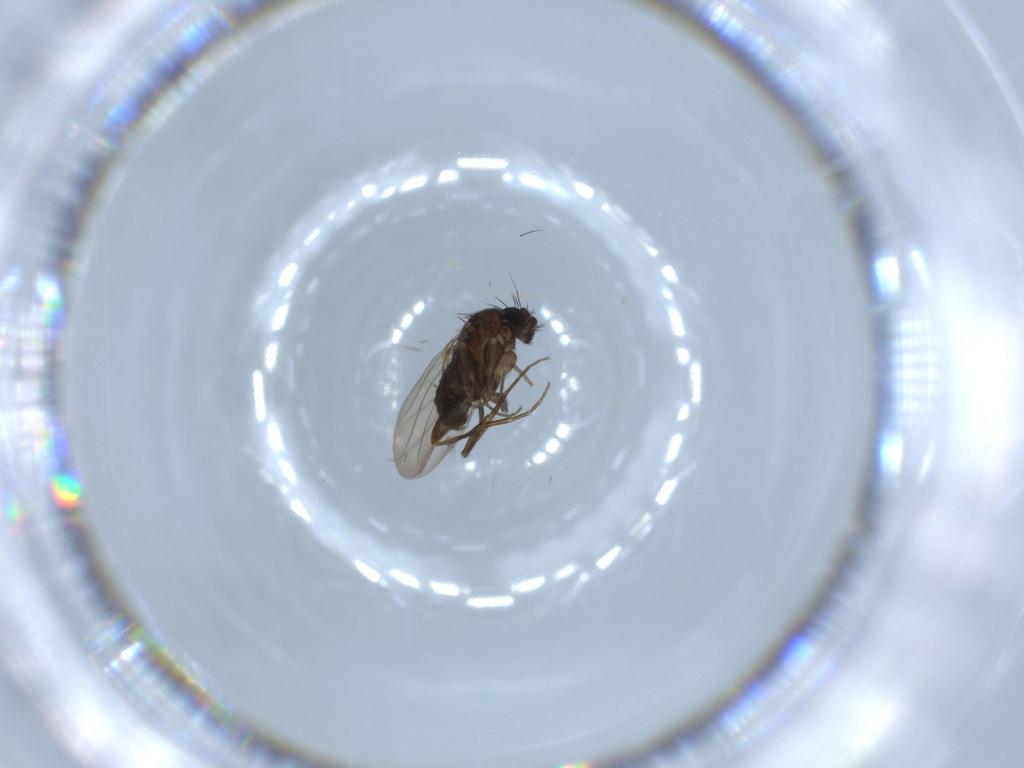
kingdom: Animalia
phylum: Arthropoda
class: Insecta
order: Diptera
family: Phoridae
